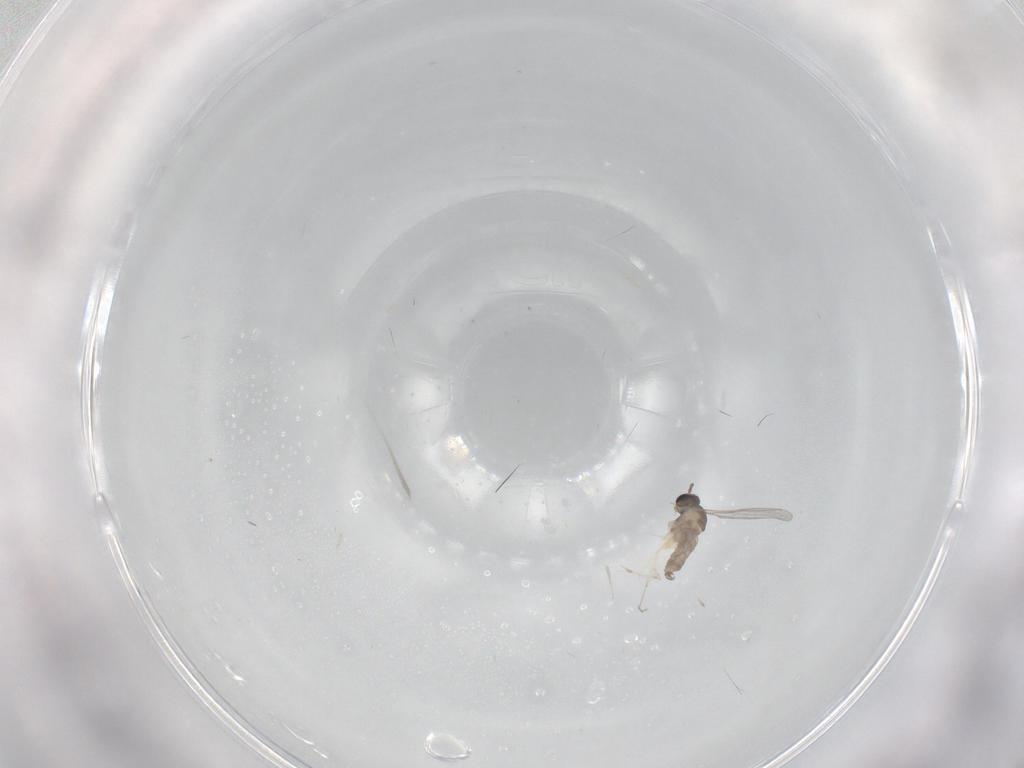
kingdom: Animalia
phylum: Arthropoda
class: Insecta
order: Diptera
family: Cecidomyiidae
